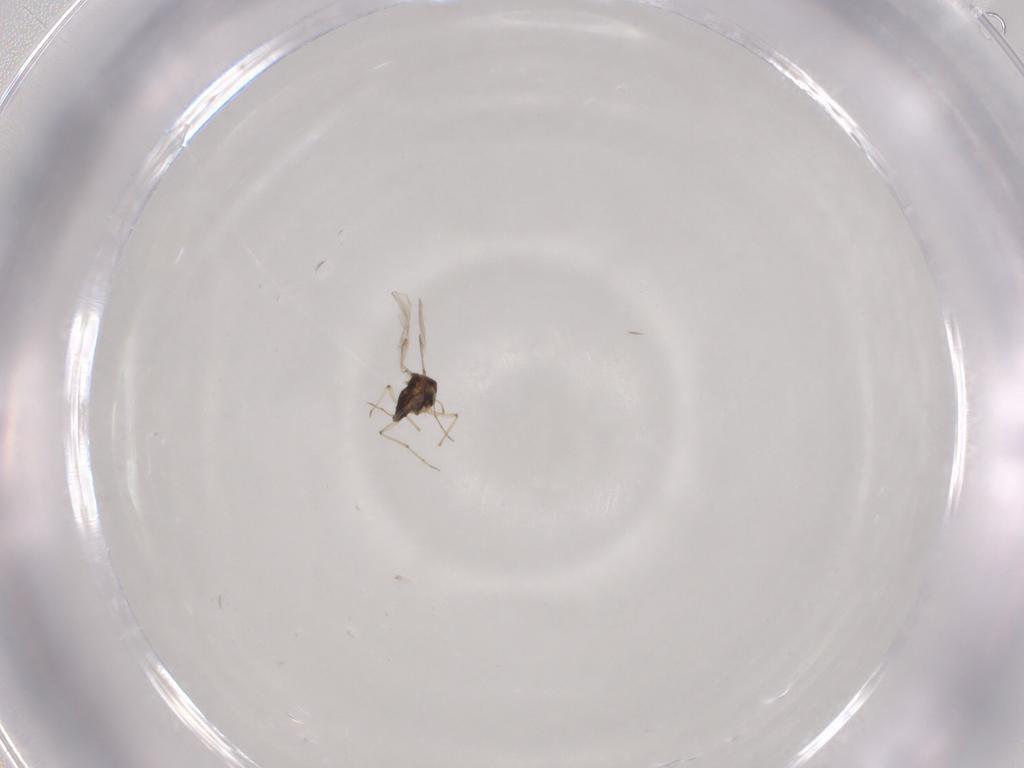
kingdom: Animalia
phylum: Arthropoda
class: Insecta
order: Diptera
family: Chironomidae
